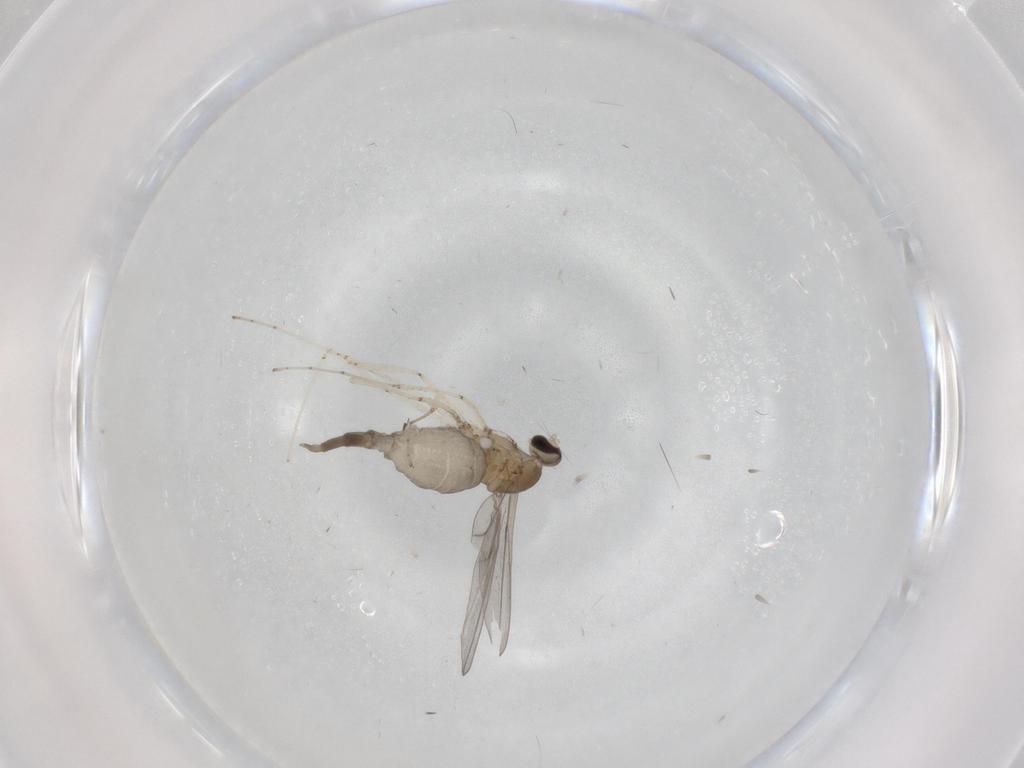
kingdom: Animalia
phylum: Arthropoda
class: Insecta
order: Diptera
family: Cecidomyiidae
